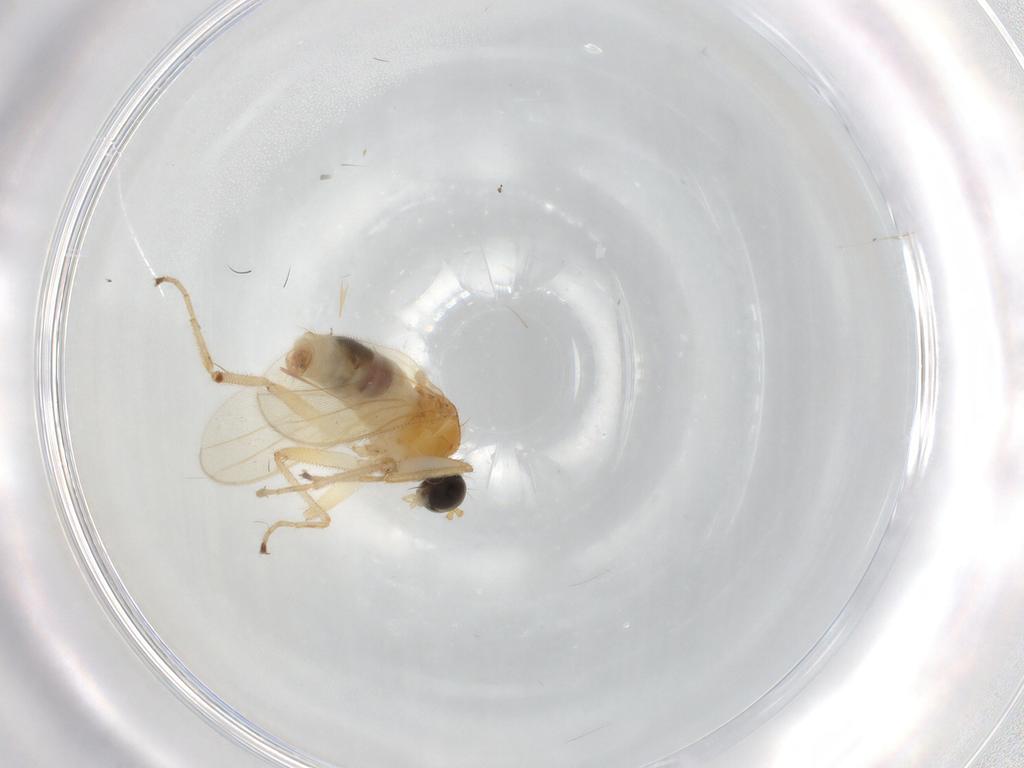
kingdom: Animalia
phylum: Arthropoda
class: Insecta
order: Diptera
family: Hybotidae
